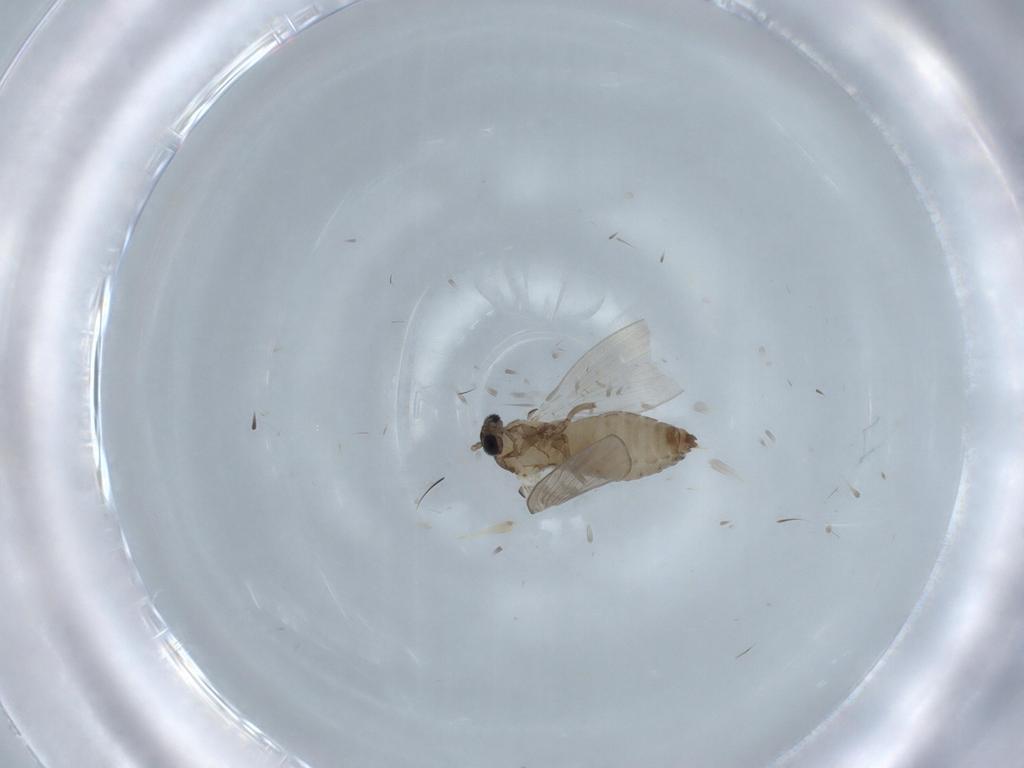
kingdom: Animalia
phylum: Arthropoda
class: Insecta
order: Diptera
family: Psychodidae
